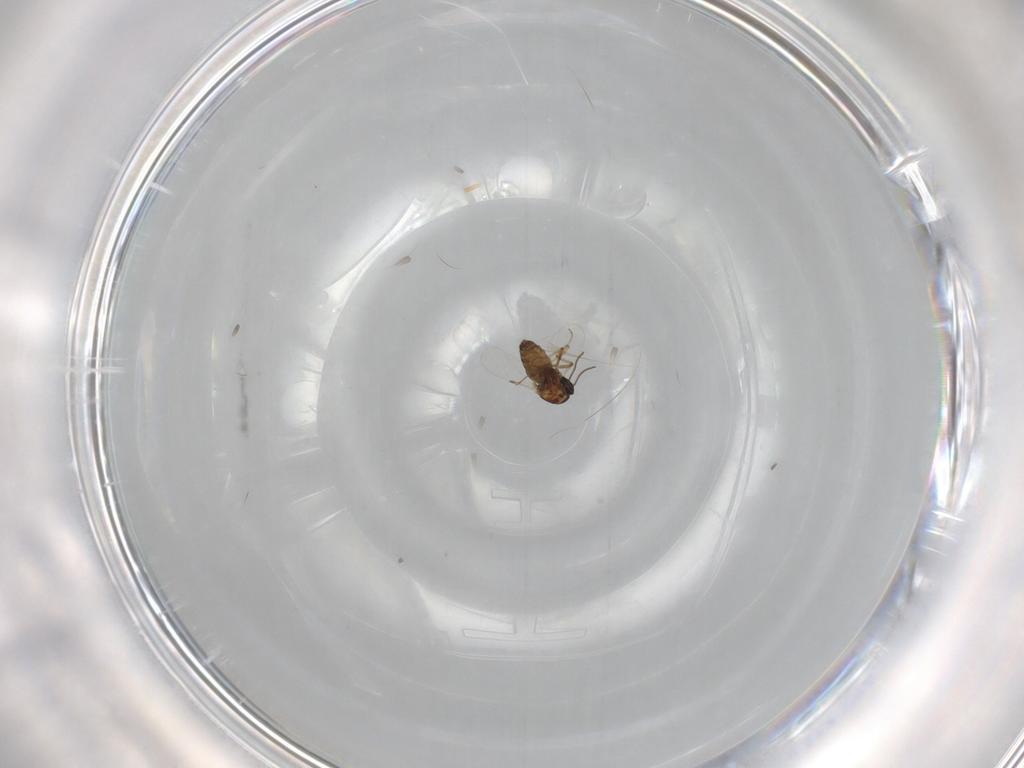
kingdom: Animalia
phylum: Arthropoda
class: Insecta
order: Diptera
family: Ceratopogonidae
